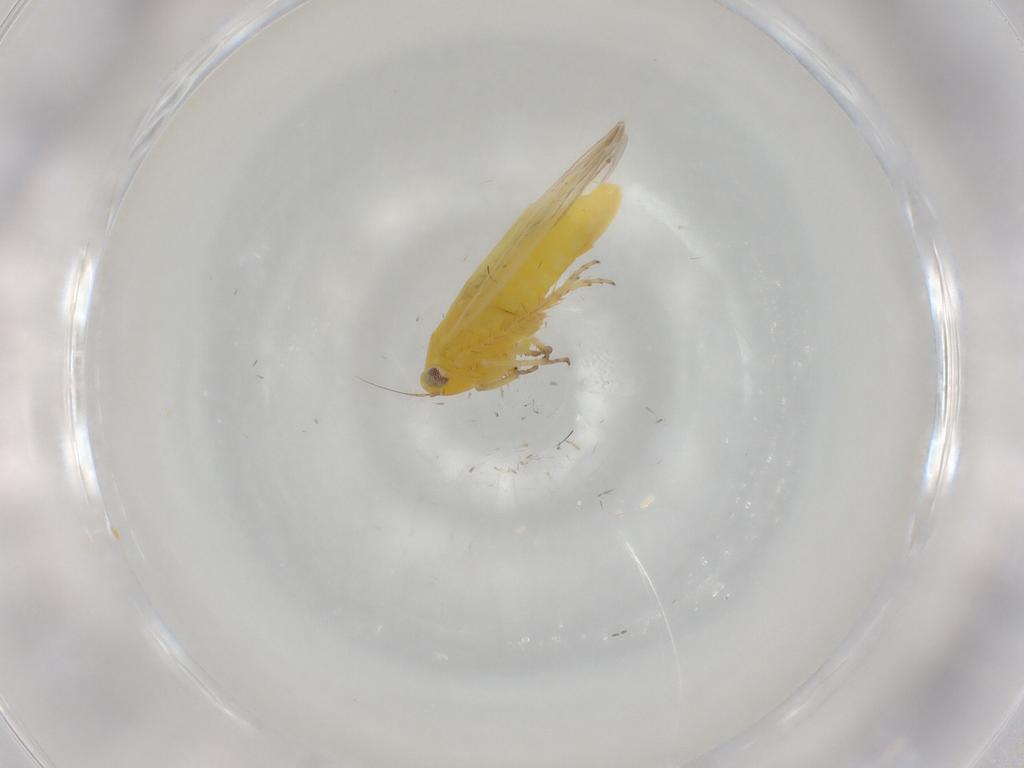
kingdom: Animalia
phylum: Arthropoda
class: Insecta
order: Hemiptera
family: Cicadellidae
